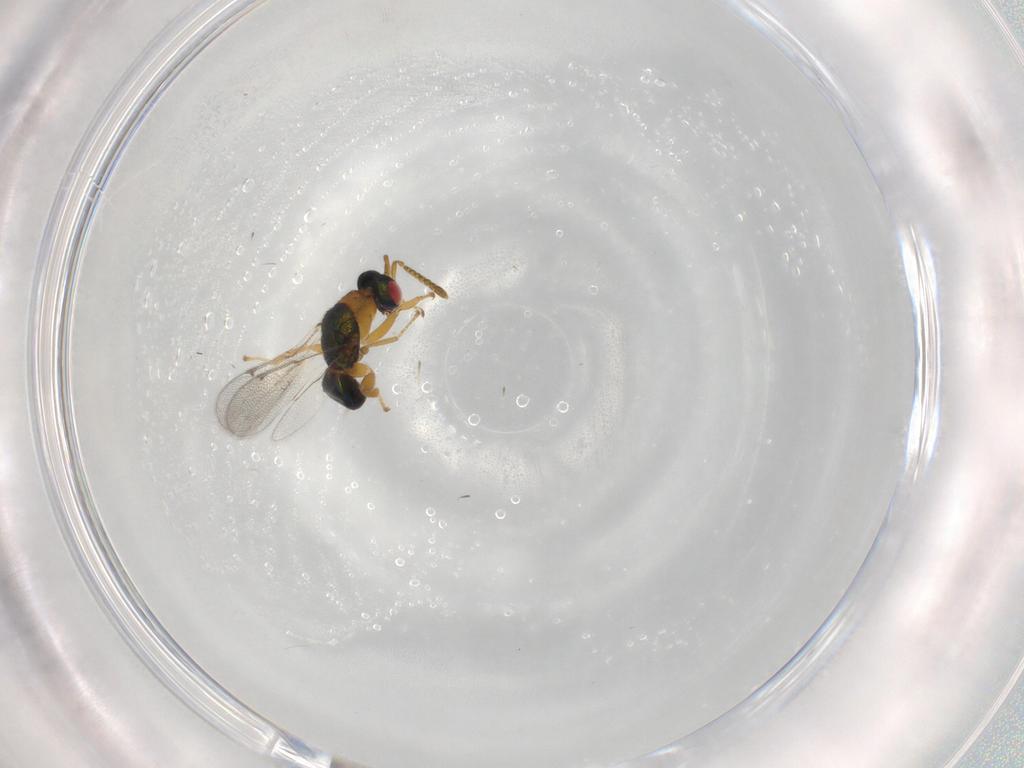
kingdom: Animalia
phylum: Arthropoda
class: Insecta
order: Hymenoptera
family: Torymidae
